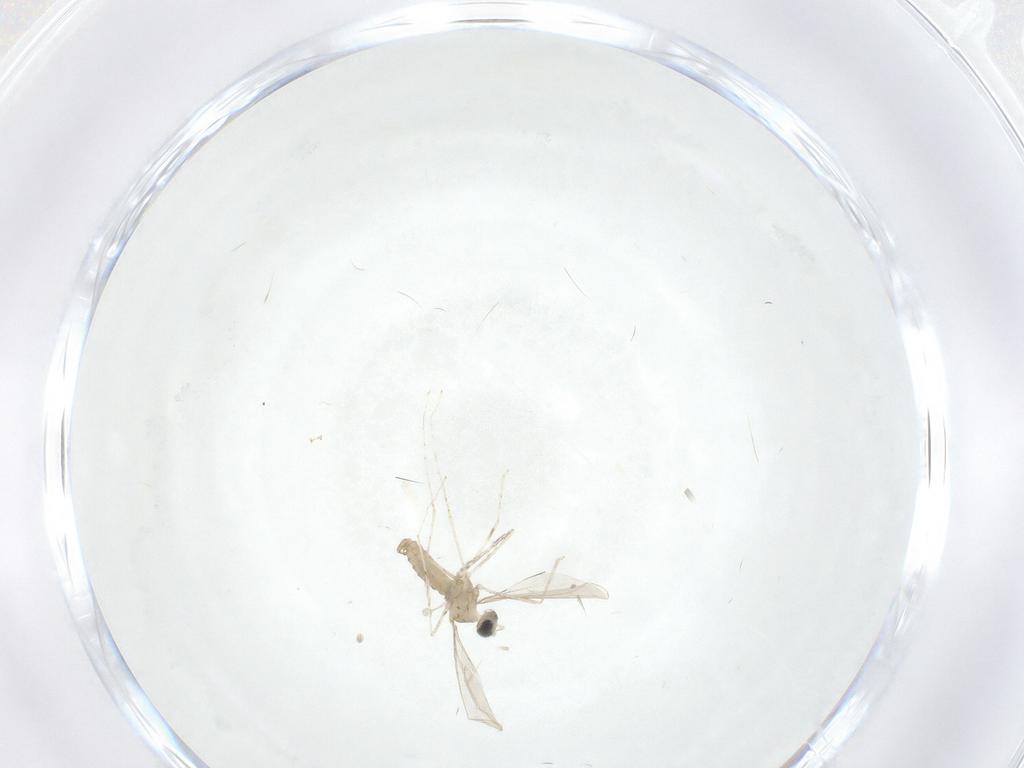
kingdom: Animalia
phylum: Arthropoda
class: Insecta
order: Diptera
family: Cecidomyiidae
